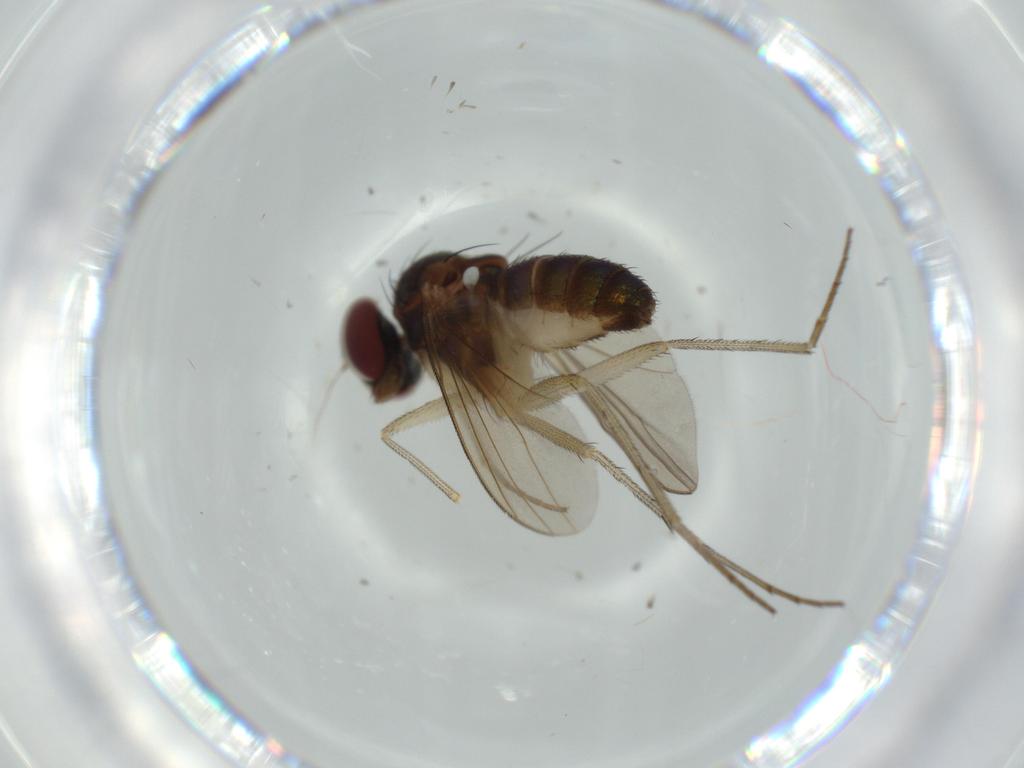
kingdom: Animalia
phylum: Arthropoda
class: Insecta
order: Diptera
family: Dolichopodidae
